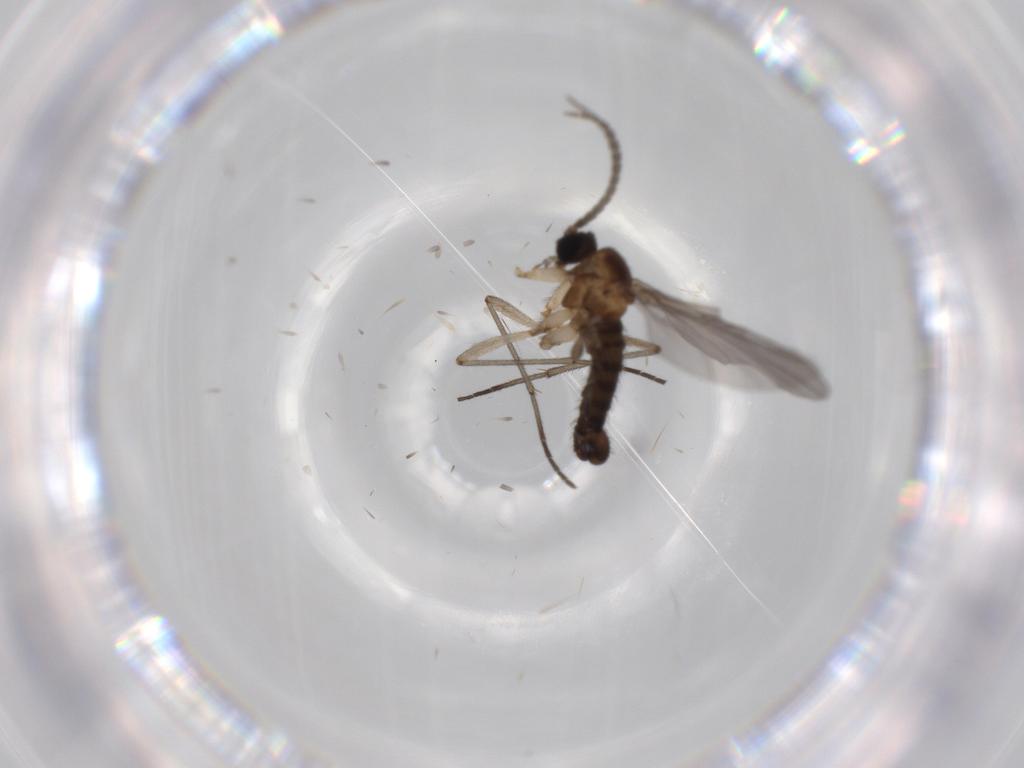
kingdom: Animalia
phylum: Arthropoda
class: Insecta
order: Diptera
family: Sciaridae
